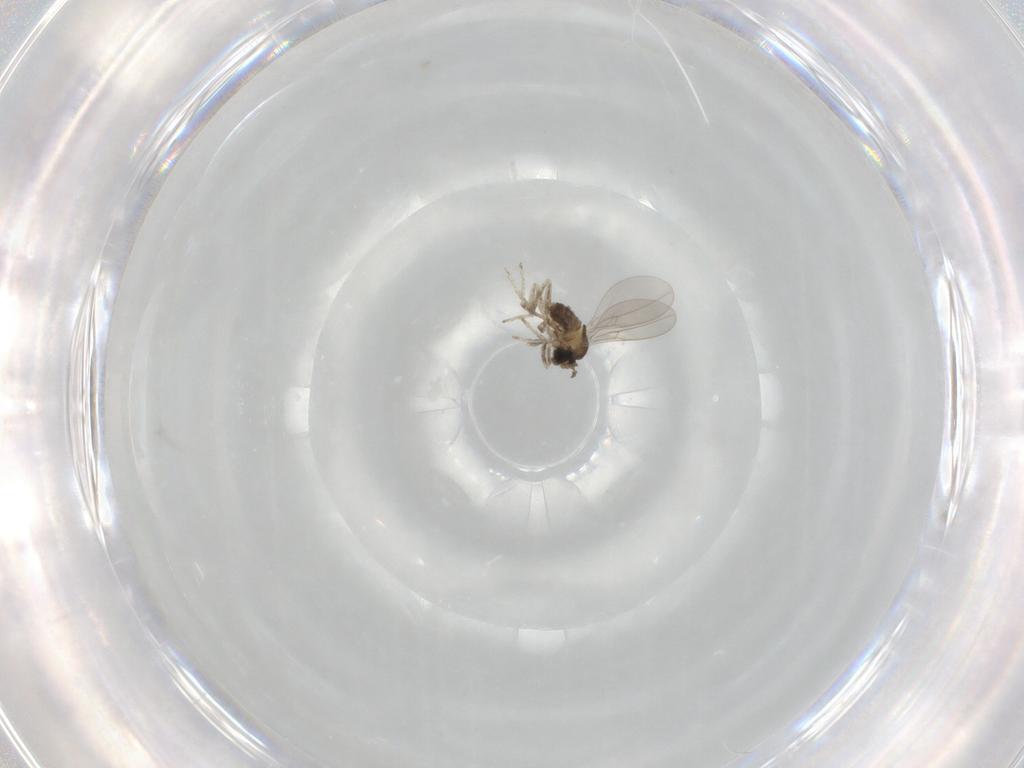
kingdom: Animalia
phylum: Arthropoda
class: Insecta
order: Diptera
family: Cecidomyiidae
